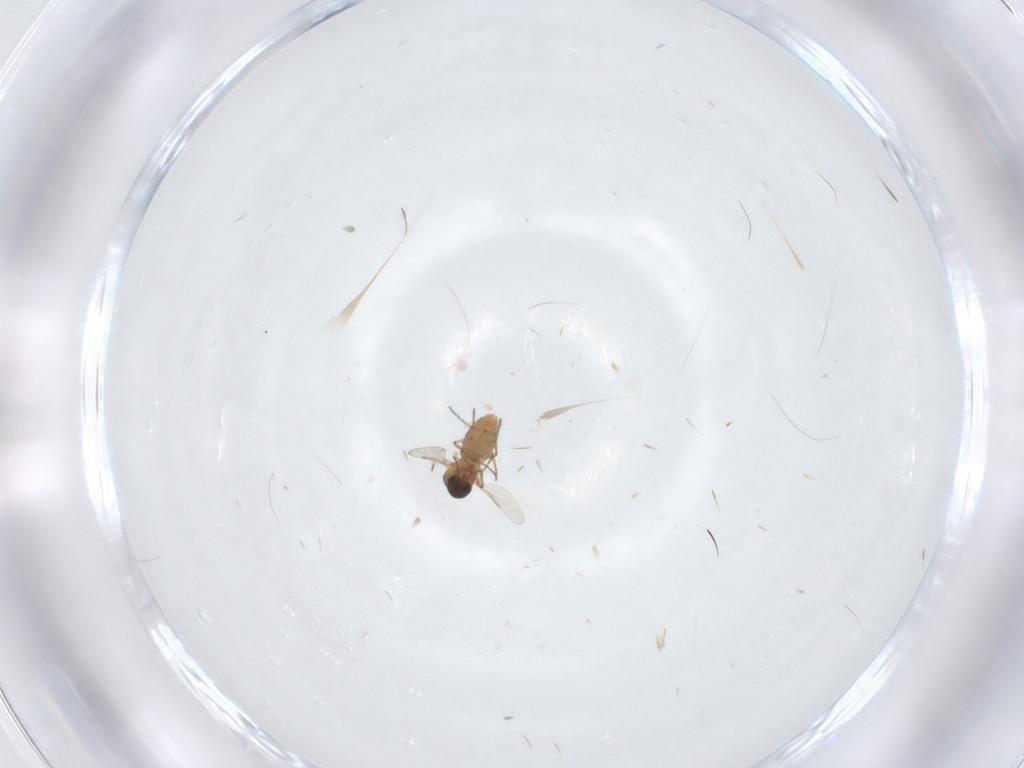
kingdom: Animalia
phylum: Arthropoda
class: Insecta
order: Diptera
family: Ceratopogonidae
